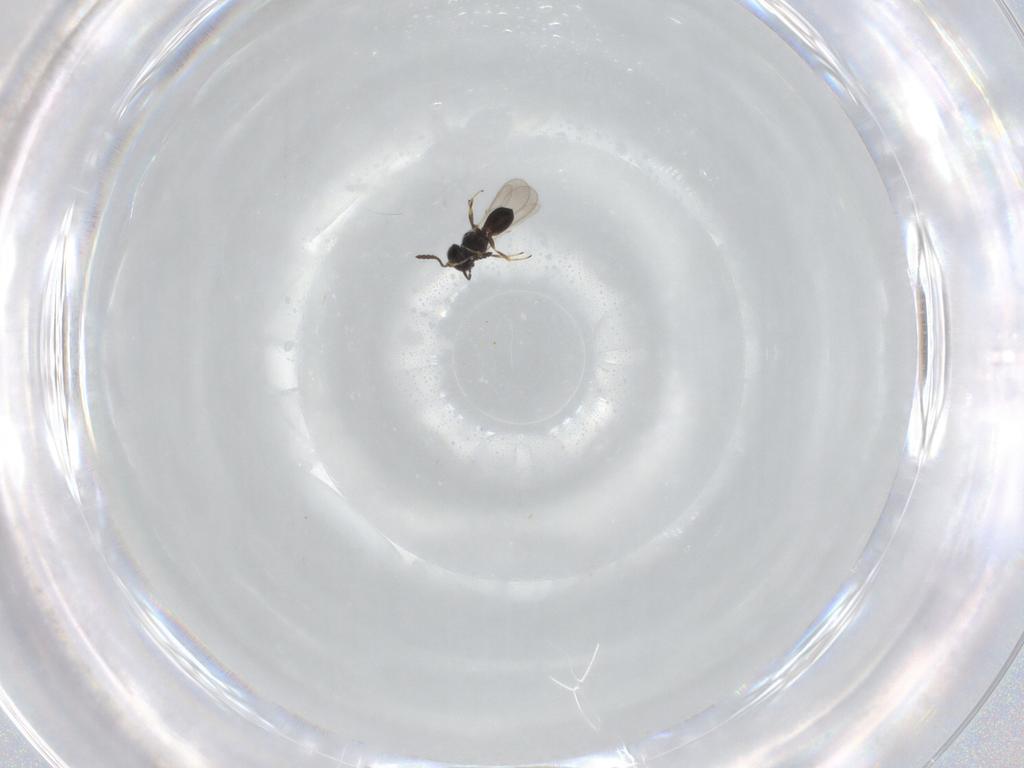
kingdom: Animalia
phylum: Arthropoda
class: Insecta
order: Hymenoptera
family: Scelionidae
